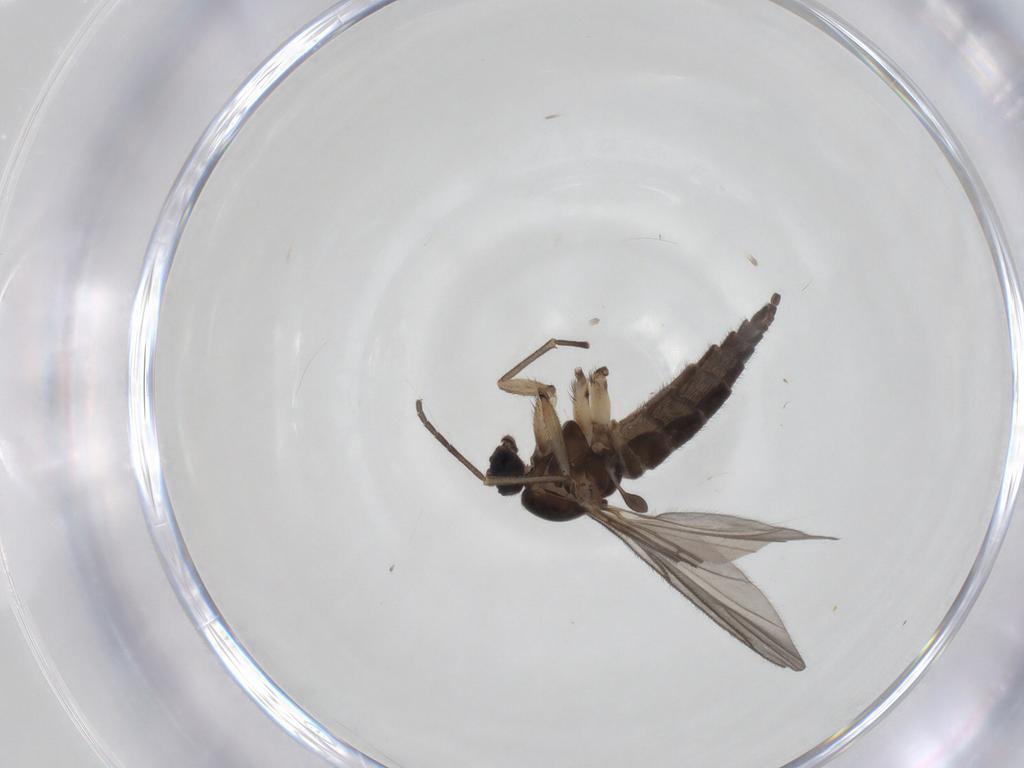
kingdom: Animalia
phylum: Arthropoda
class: Insecta
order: Diptera
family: Sciaridae
